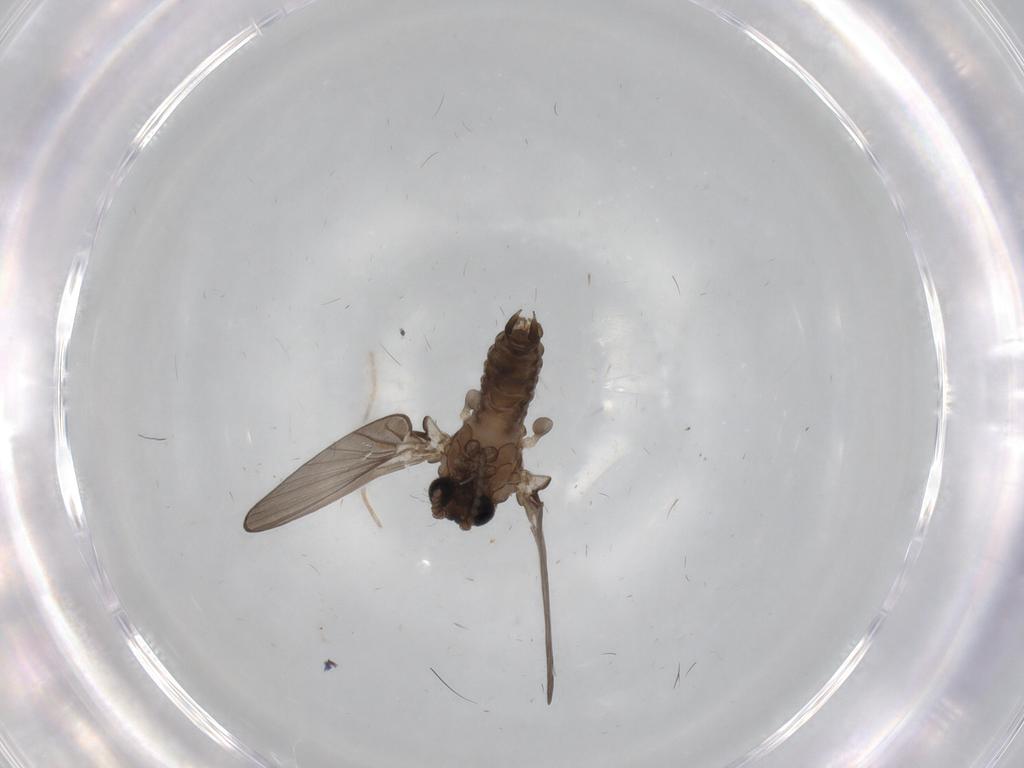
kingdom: Animalia
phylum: Arthropoda
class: Insecta
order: Diptera
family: Psychodidae
